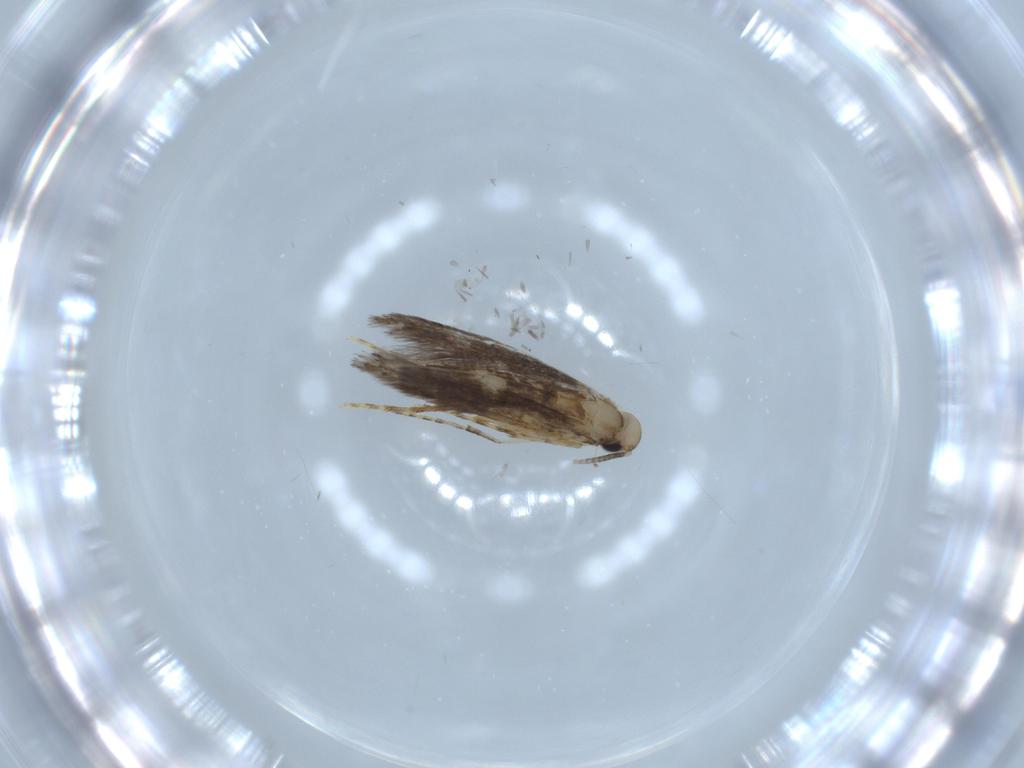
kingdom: Animalia
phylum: Arthropoda
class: Insecta
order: Lepidoptera
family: Gracillariidae
